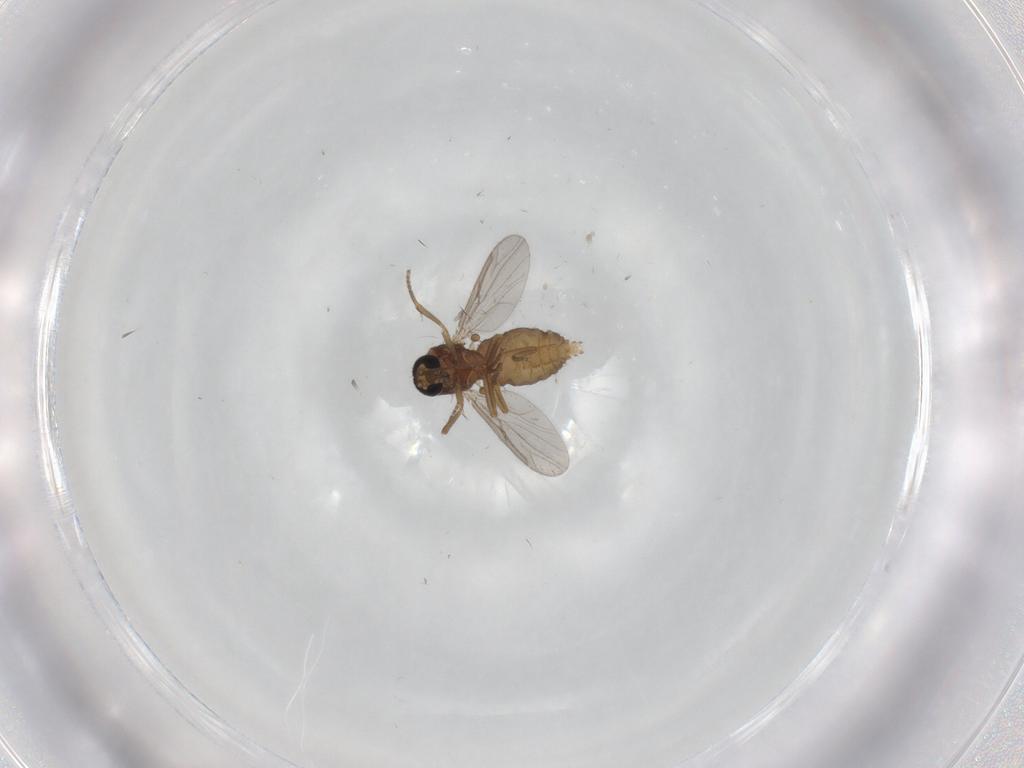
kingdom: Animalia
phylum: Arthropoda
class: Insecta
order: Diptera
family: Ceratopogonidae
